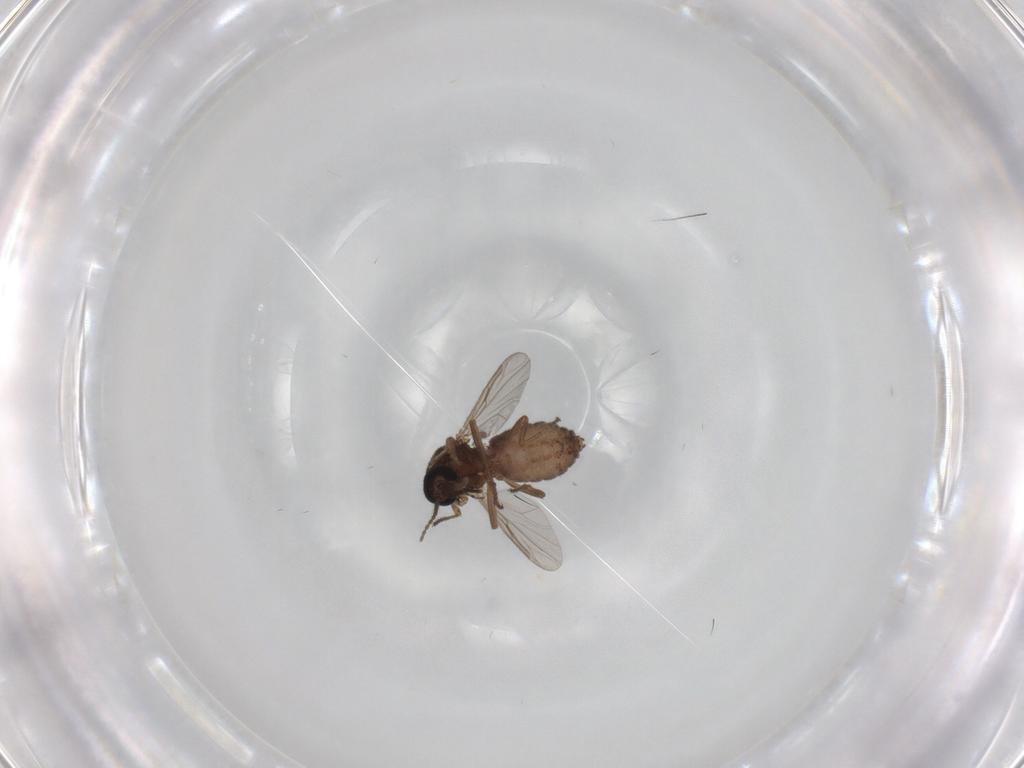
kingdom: Animalia
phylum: Arthropoda
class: Insecta
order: Diptera
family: Ceratopogonidae
